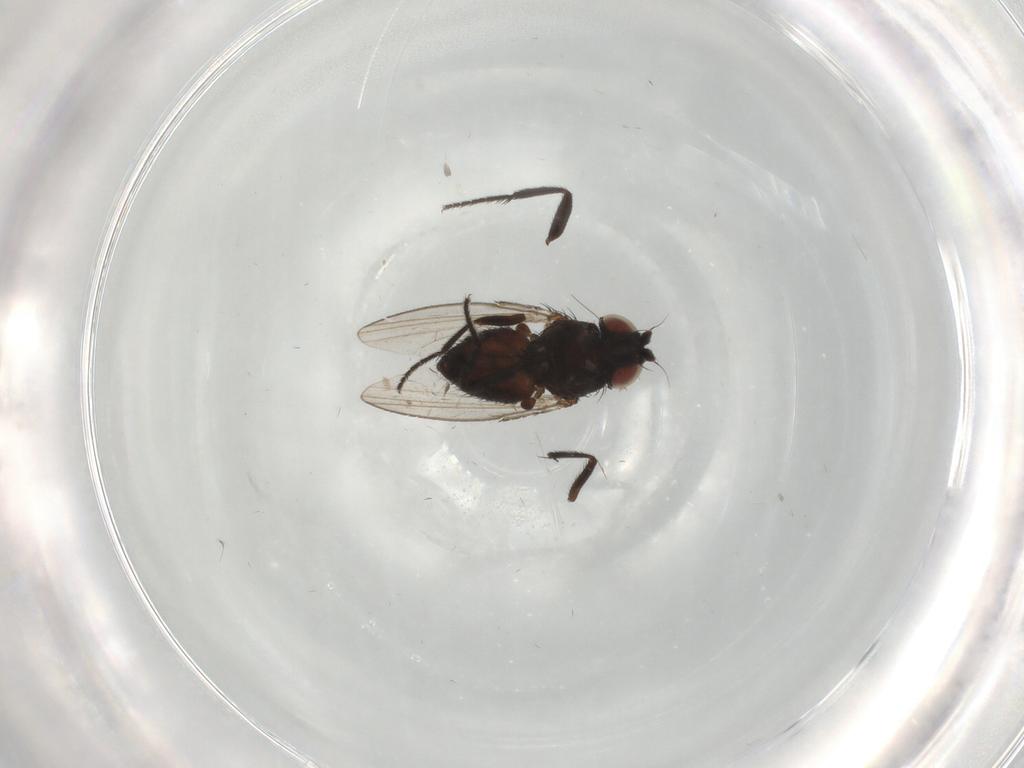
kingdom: Animalia
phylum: Arthropoda
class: Insecta
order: Diptera
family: Milichiidae
